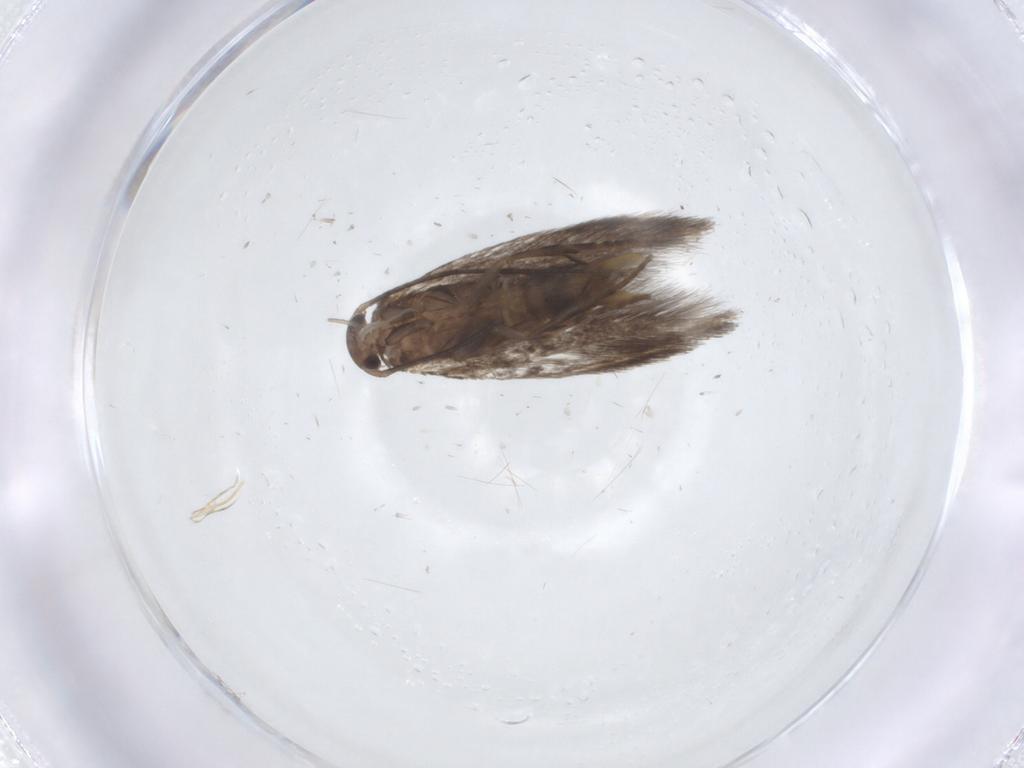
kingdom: Animalia
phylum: Arthropoda
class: Insecta
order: Lepidoptera
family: Elachistidae
